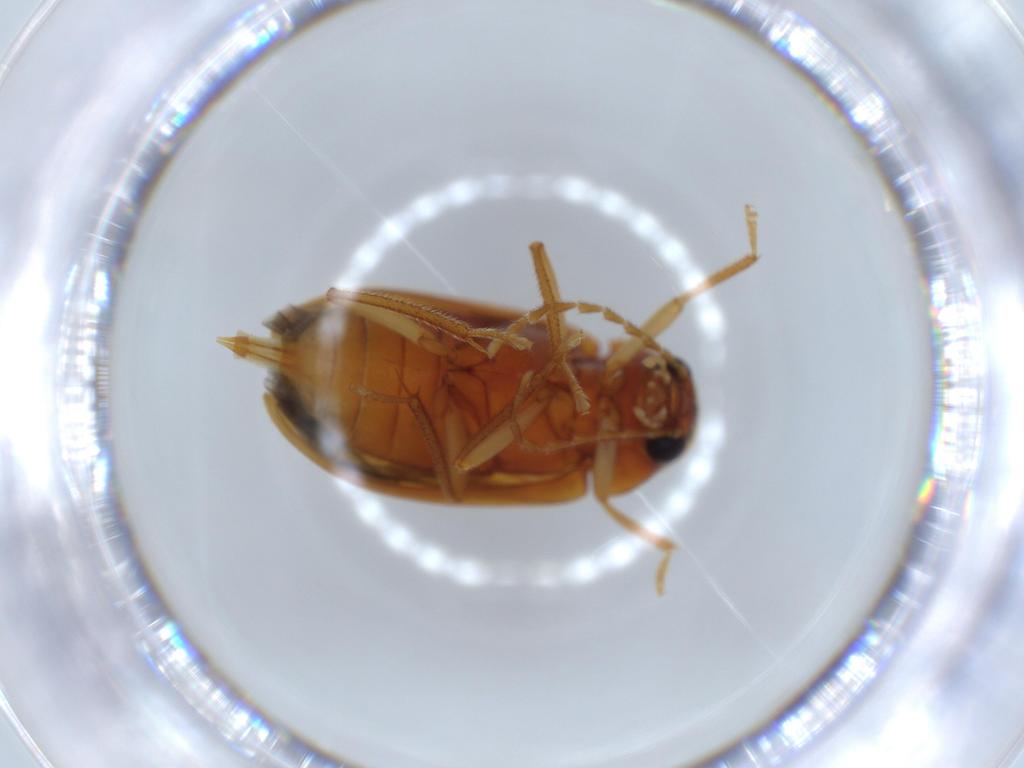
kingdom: Animalia
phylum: Arthropoda
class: Insecta
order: Coleoptera
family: Ptilodactylidae
